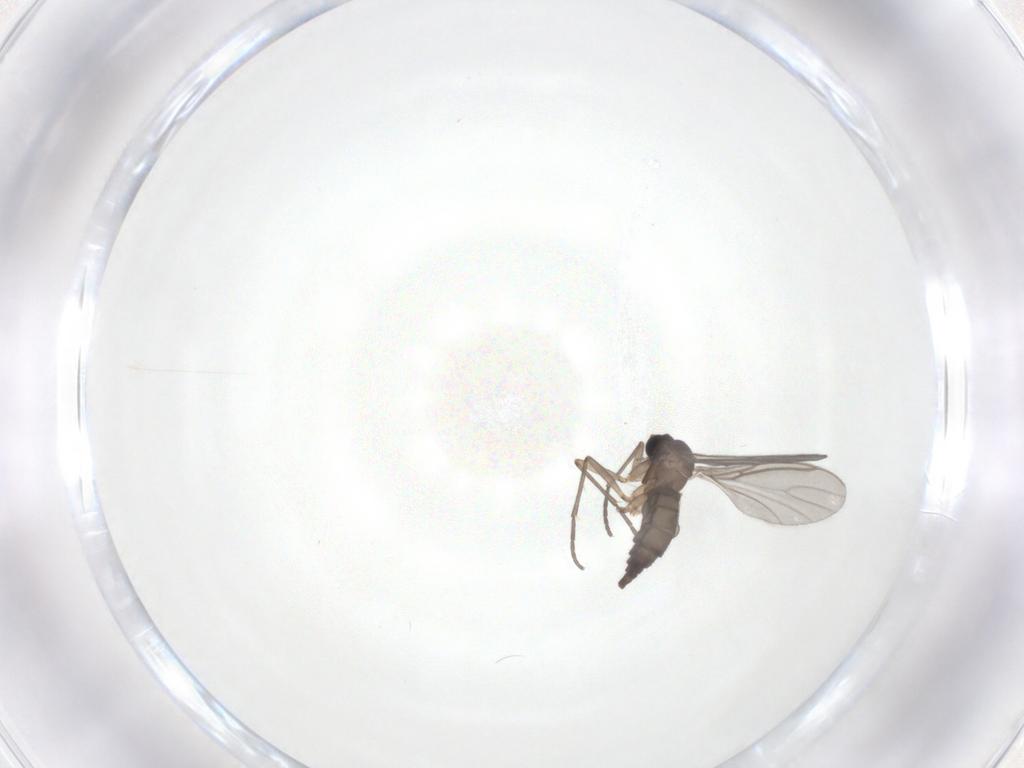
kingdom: Animalia
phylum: Arthropoda
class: Insecta
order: Diptera
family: Sciaridae
